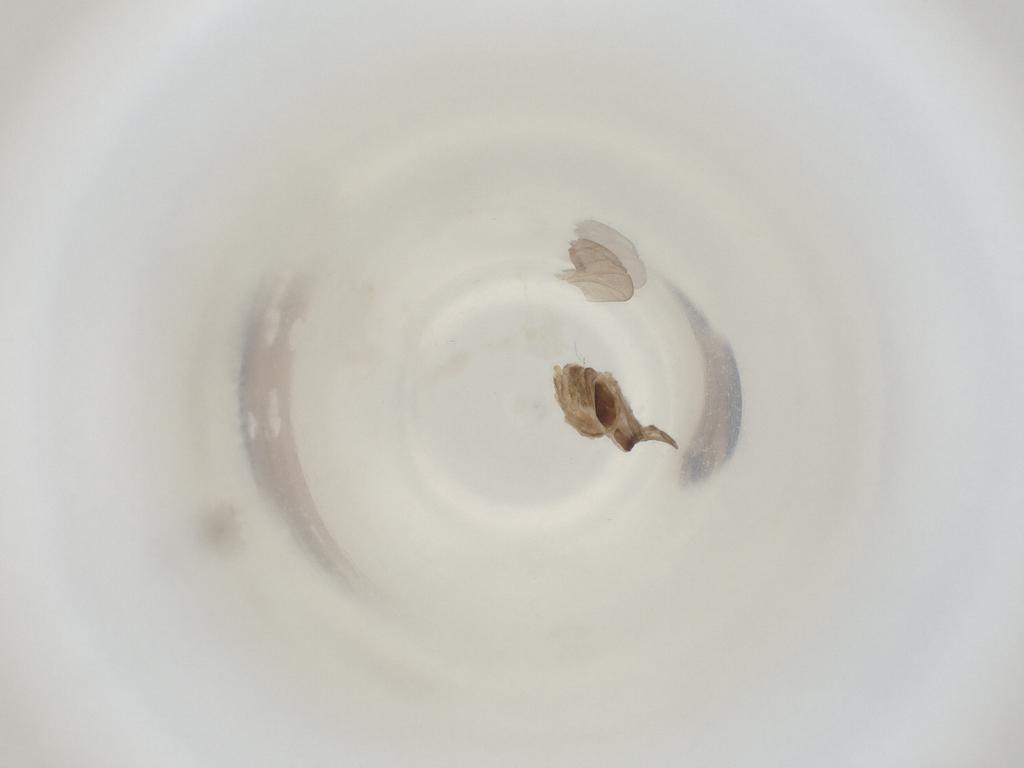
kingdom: Animalia
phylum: Arthropoda
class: Insecta
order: Diptera
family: Cecidomyiidae
